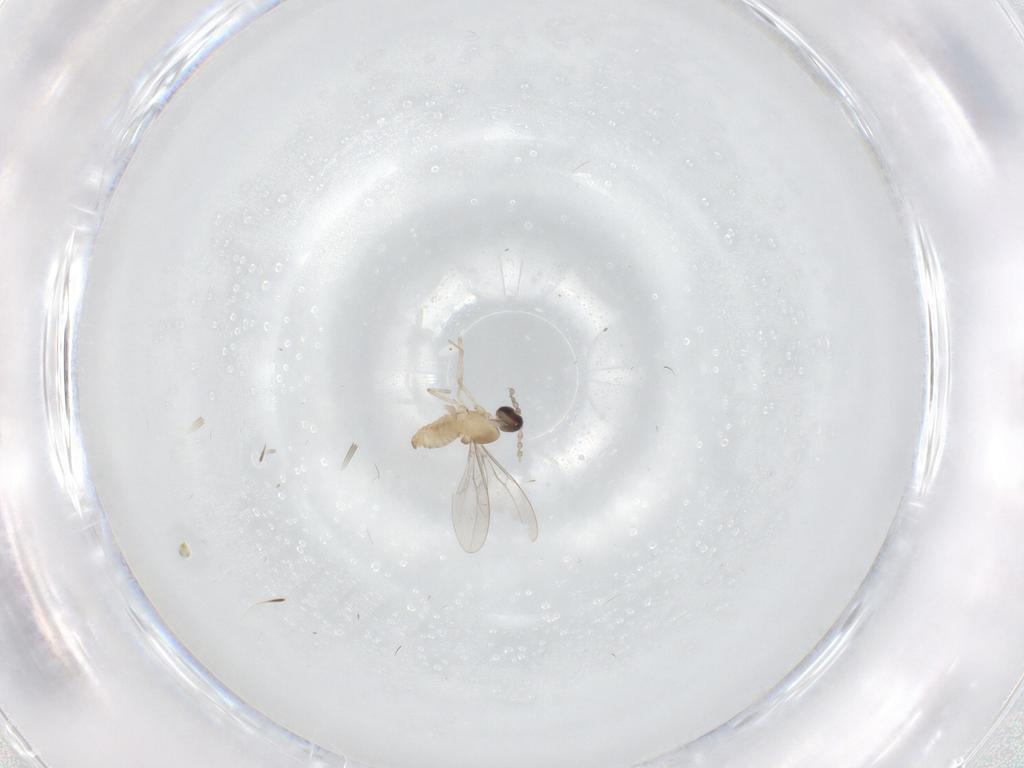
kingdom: Animalia
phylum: Arthropoda
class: Insecta
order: Diptera
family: Cecidomyiidae
